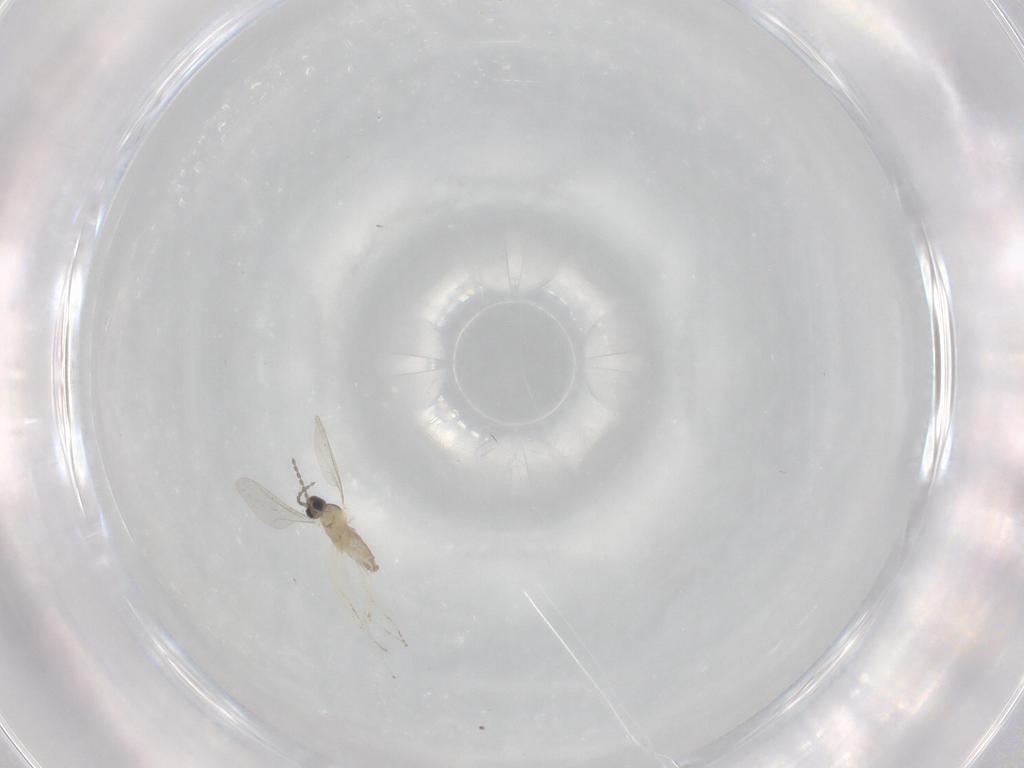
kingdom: Animalia
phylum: Arthropoda
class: Insecta
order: Diptera
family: Cecidomyiidae
